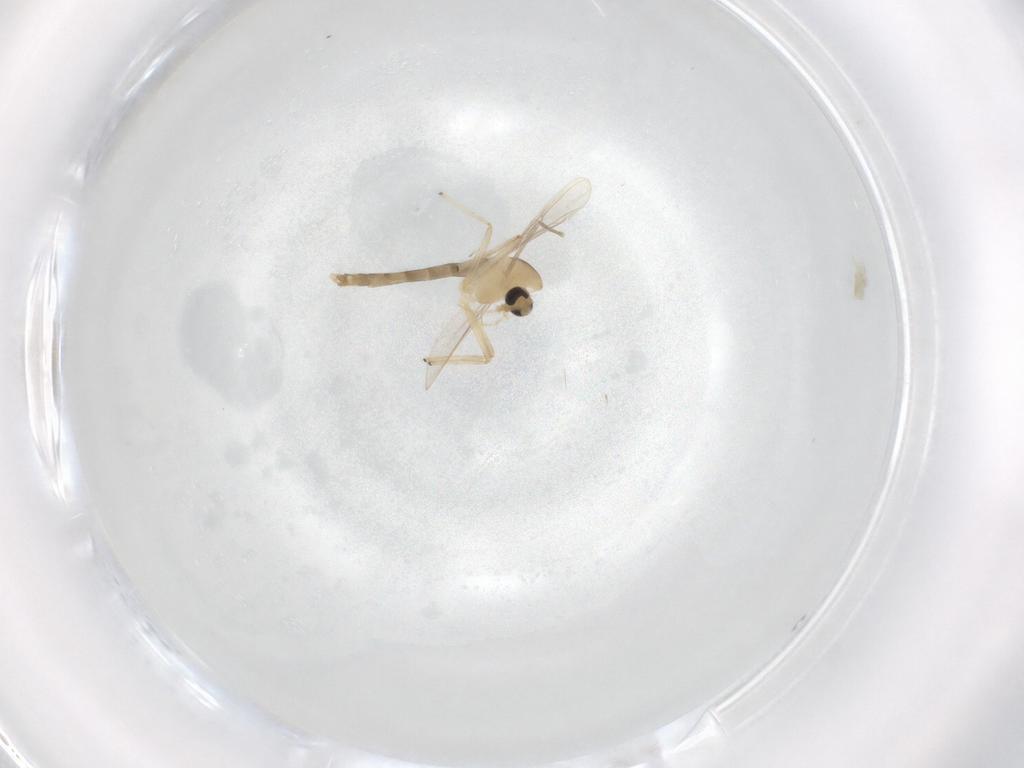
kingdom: Animalia
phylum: Arthropoda
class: Insecta
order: Diptera
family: Chironomidae
